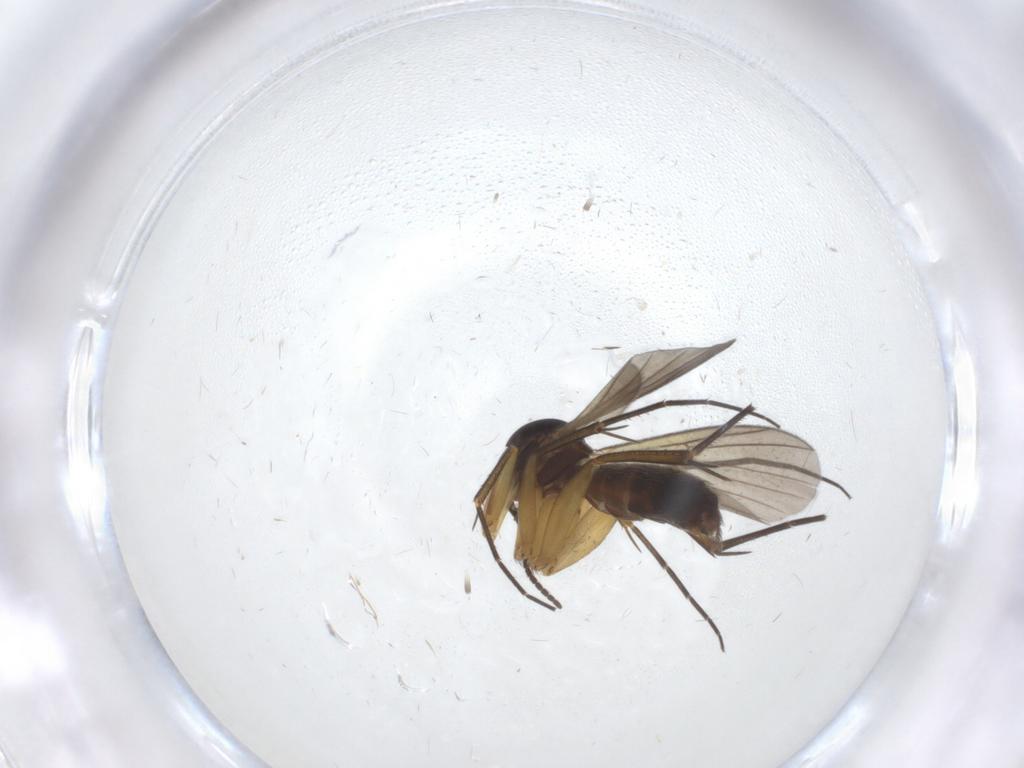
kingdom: Animalia
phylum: Arthropoda
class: Insecta
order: Diptera
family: Mycetophilidae
